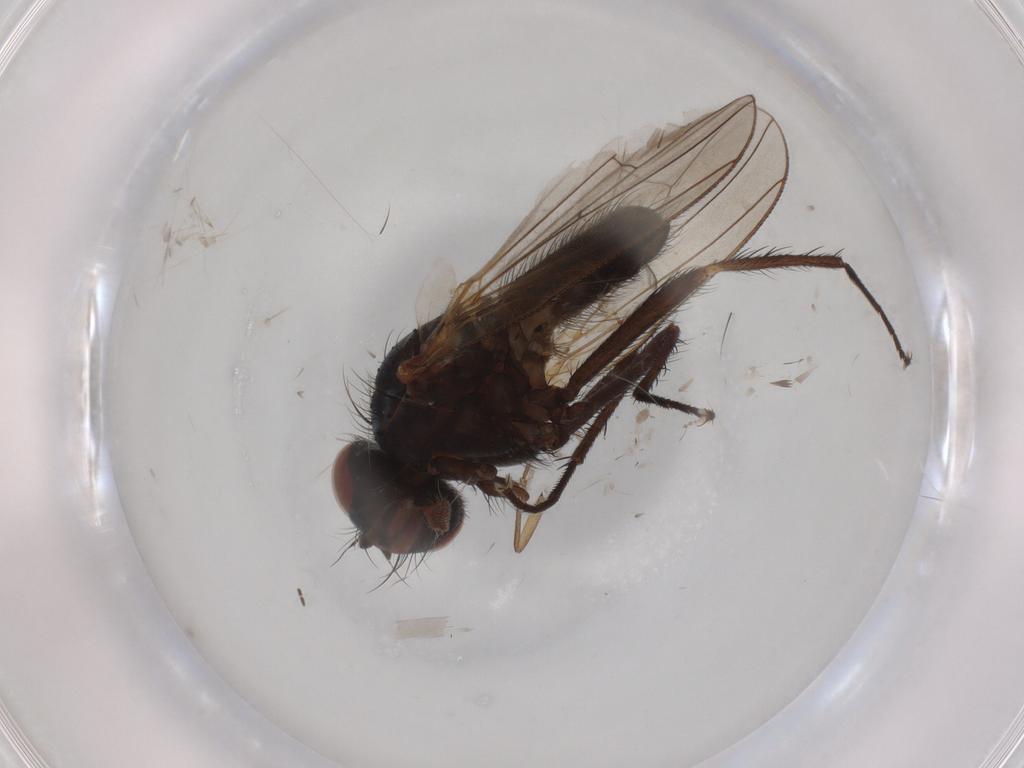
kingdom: Animalia
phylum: Arthropoda
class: Insecta
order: Diptera
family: Anthomyiidae
